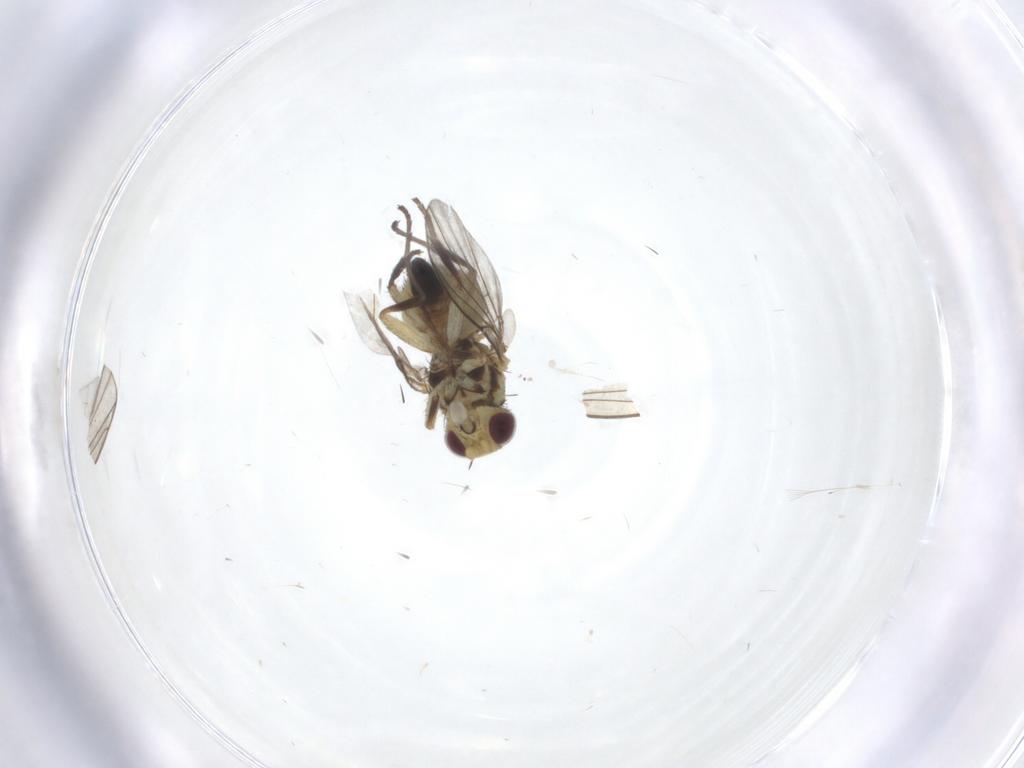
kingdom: Animalia
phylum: Arthropoda
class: Insecta
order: Diptera
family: Agromyzidae
